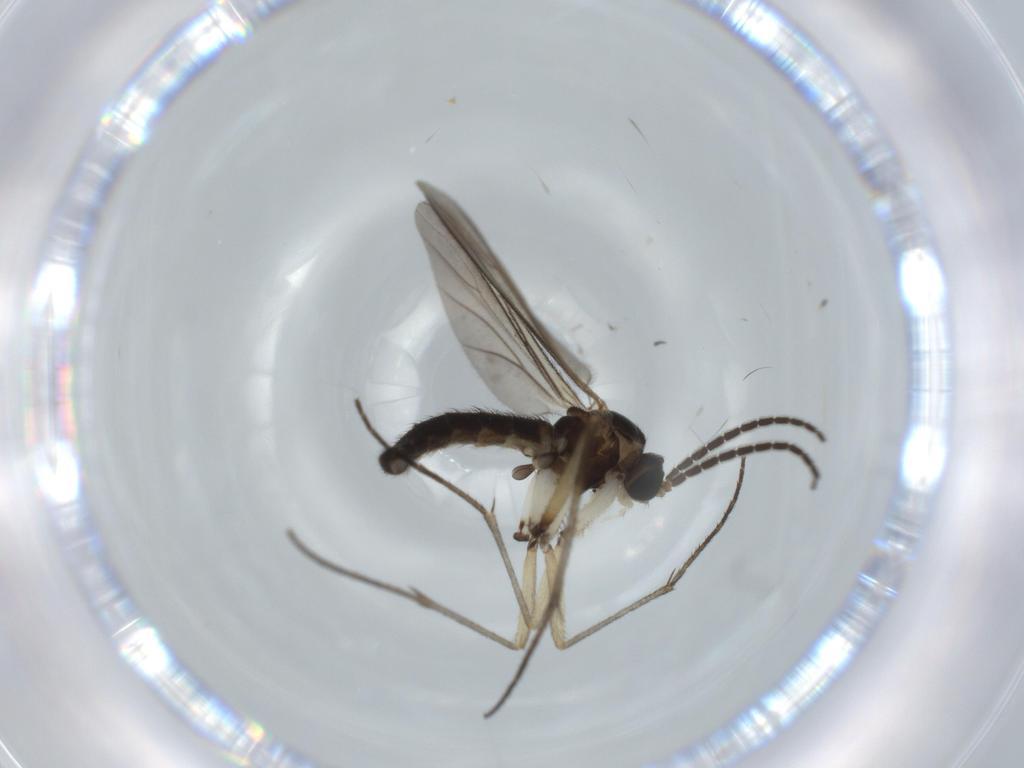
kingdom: Animalia
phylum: Arthropoda
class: Insecta
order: Diptera
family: Sciaridae
